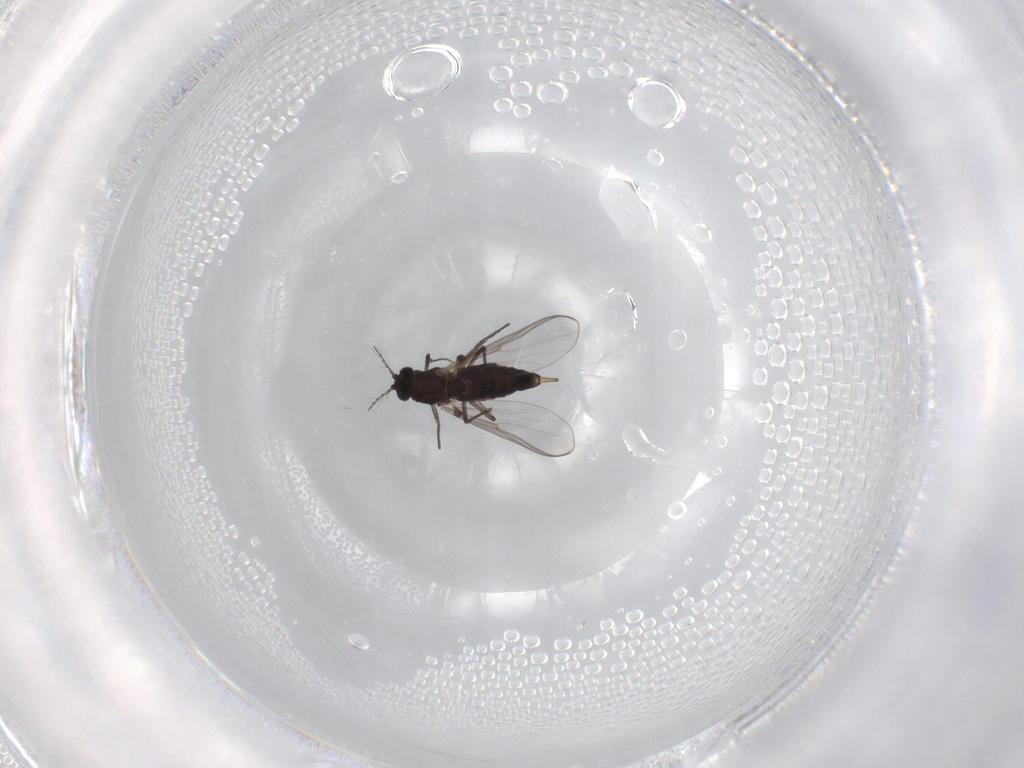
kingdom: Animalia
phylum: Arthropoda
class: Insecta
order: Diptera
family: Chironomidae
